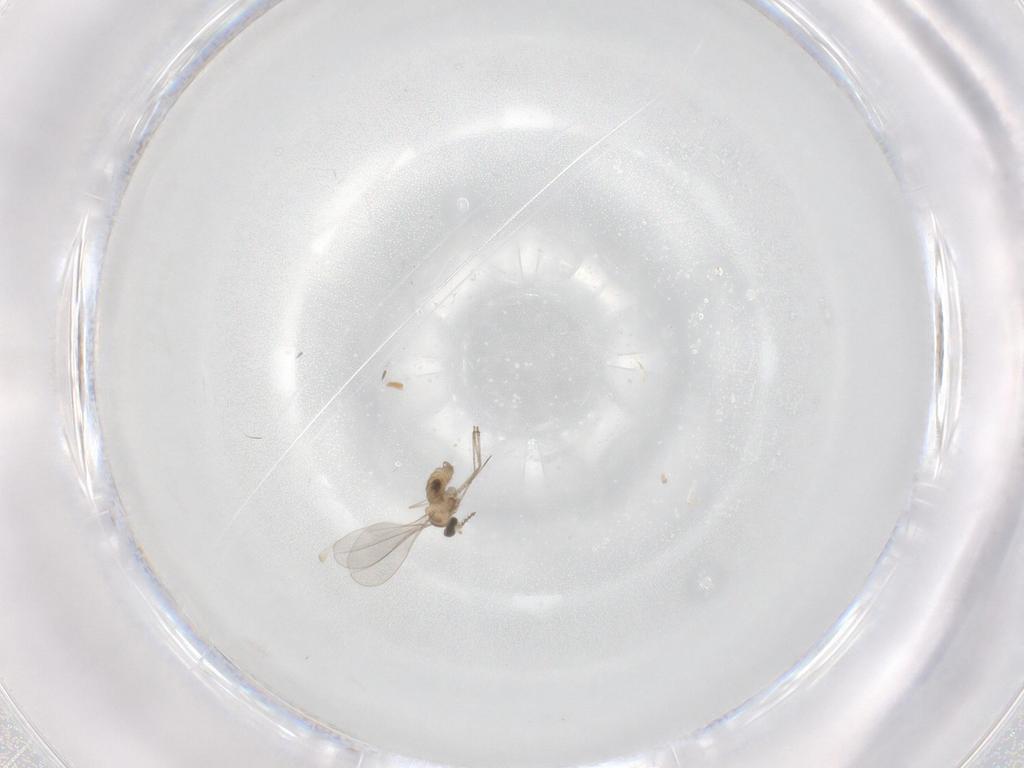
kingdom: Animalia
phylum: Arthropoda
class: Insecta
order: Diptera
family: Cecidomyiidae
